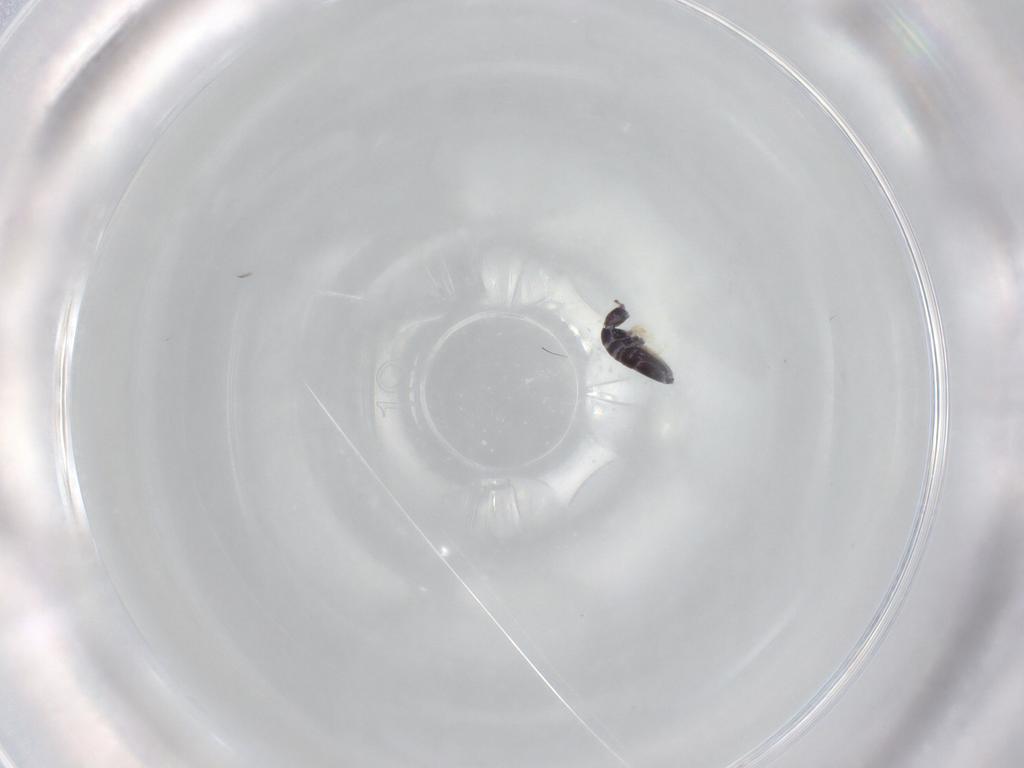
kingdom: Animalia
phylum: Arthropoda
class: Collembola
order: Entomobryomorpha
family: Entomobryidae
